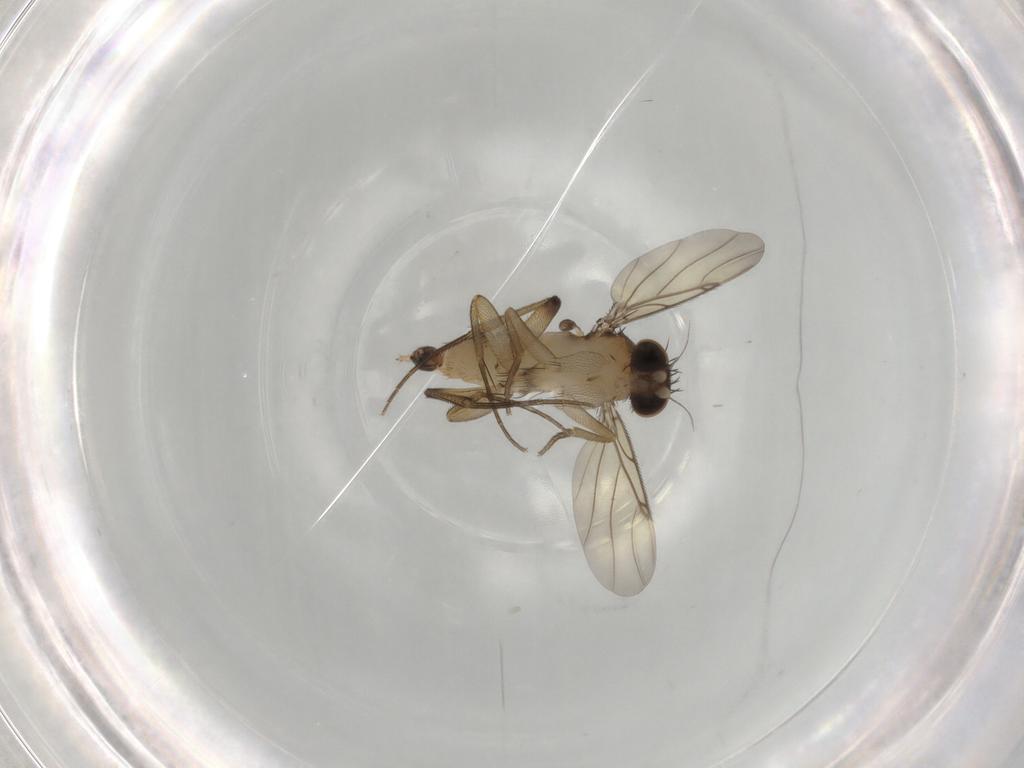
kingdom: Animalia
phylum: Arthropoda
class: Insecta
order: Diptera
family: Phoridae
